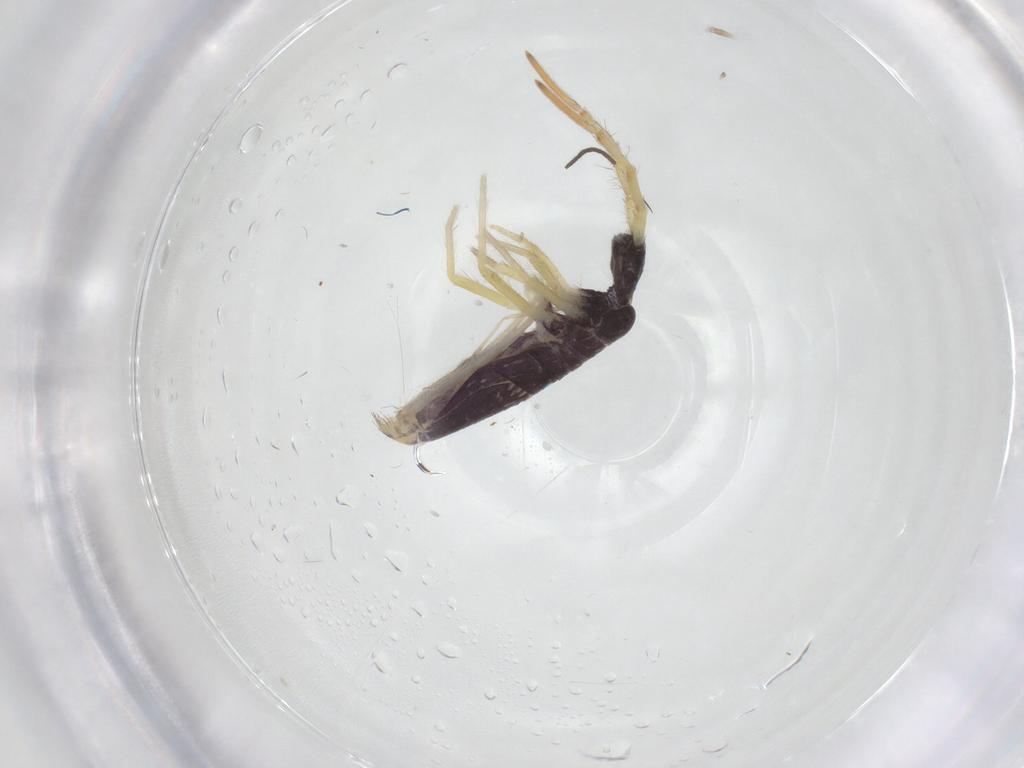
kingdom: Animalia
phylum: Arthropoda
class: Collembola
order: Entomobryomorpha
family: Entomobryidae
